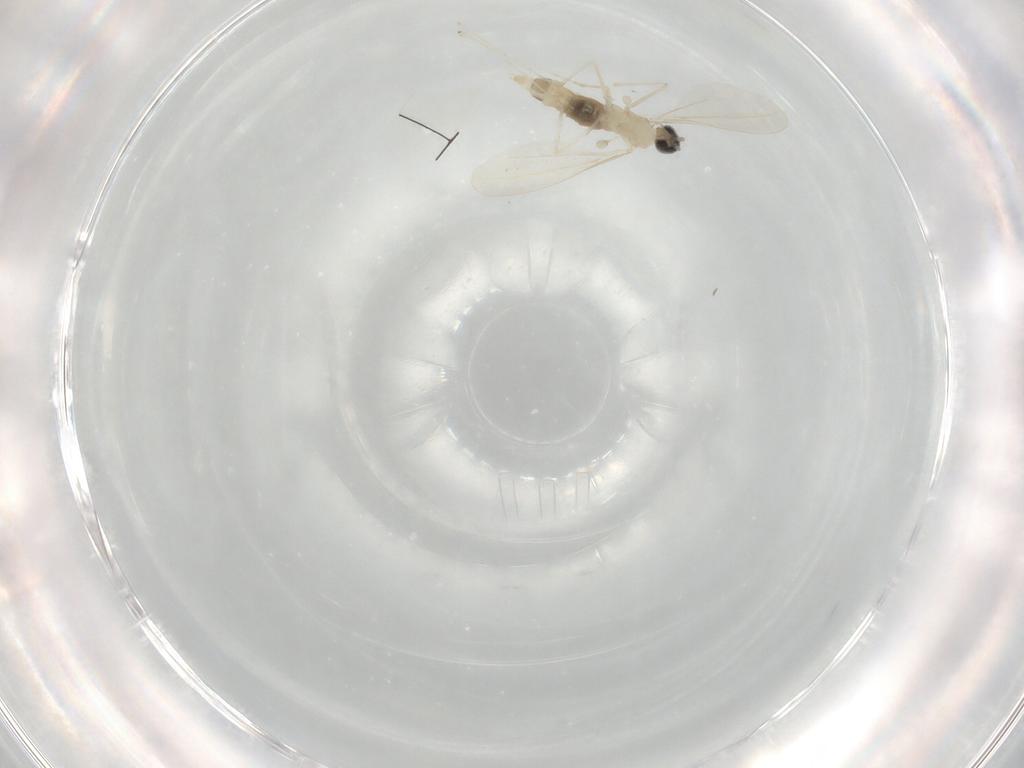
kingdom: Animalia
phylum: Arthropoda
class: Insecta
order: Diptera
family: Cecidomyiidae
